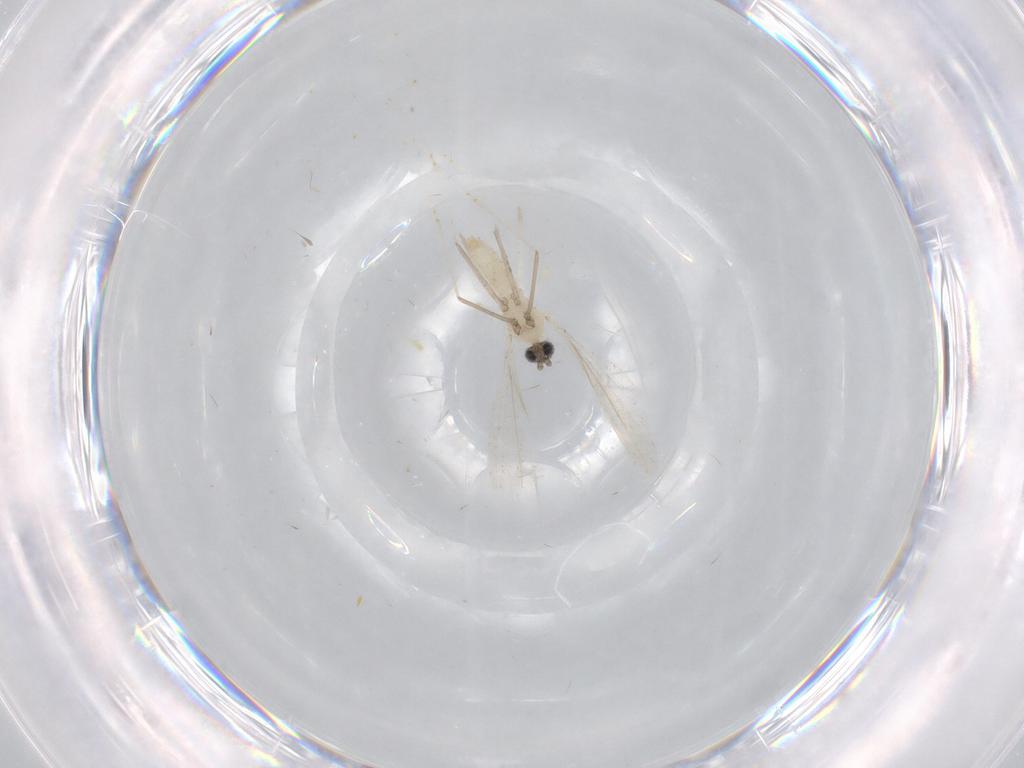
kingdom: Animalia
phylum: Arthropoda
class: Insecta
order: Diptera
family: Cecidomyiidae
